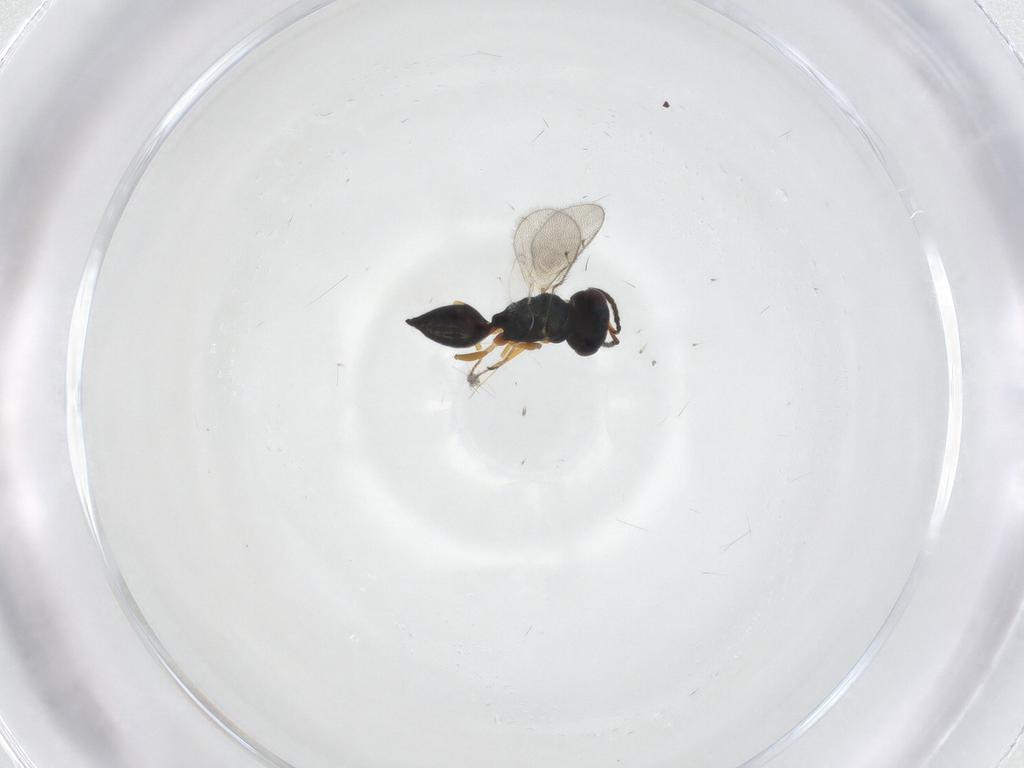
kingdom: Animalia
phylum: Arthropoda
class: Insecta
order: Hymenoptera
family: Pteromalidae
